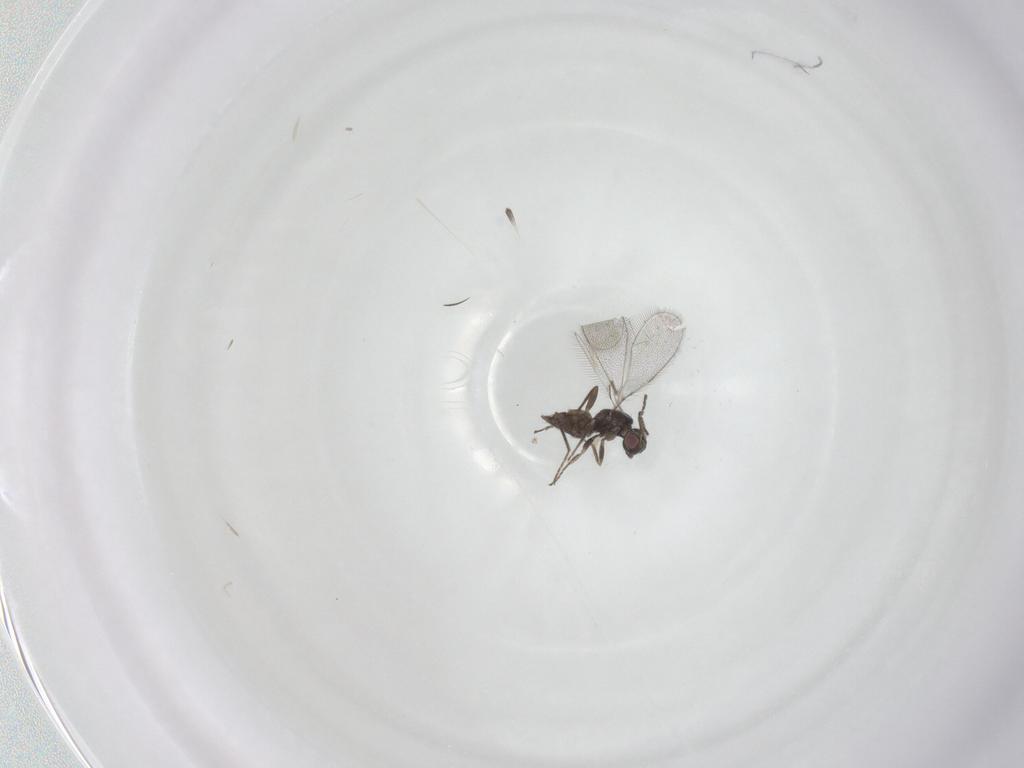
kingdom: Animalia
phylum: Arthropoda
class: Insecta
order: Hymenoptera
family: Mymaridae
